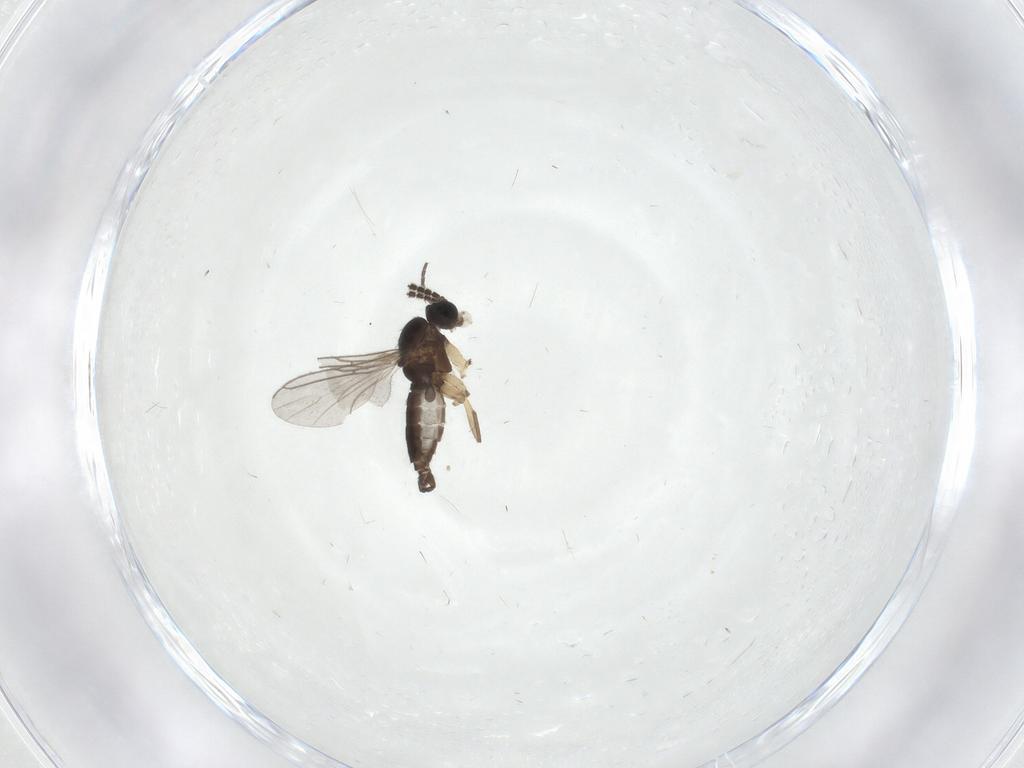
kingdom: Animalia
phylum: Arthropoda
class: Insecta
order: Diptera
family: Sciaridae
